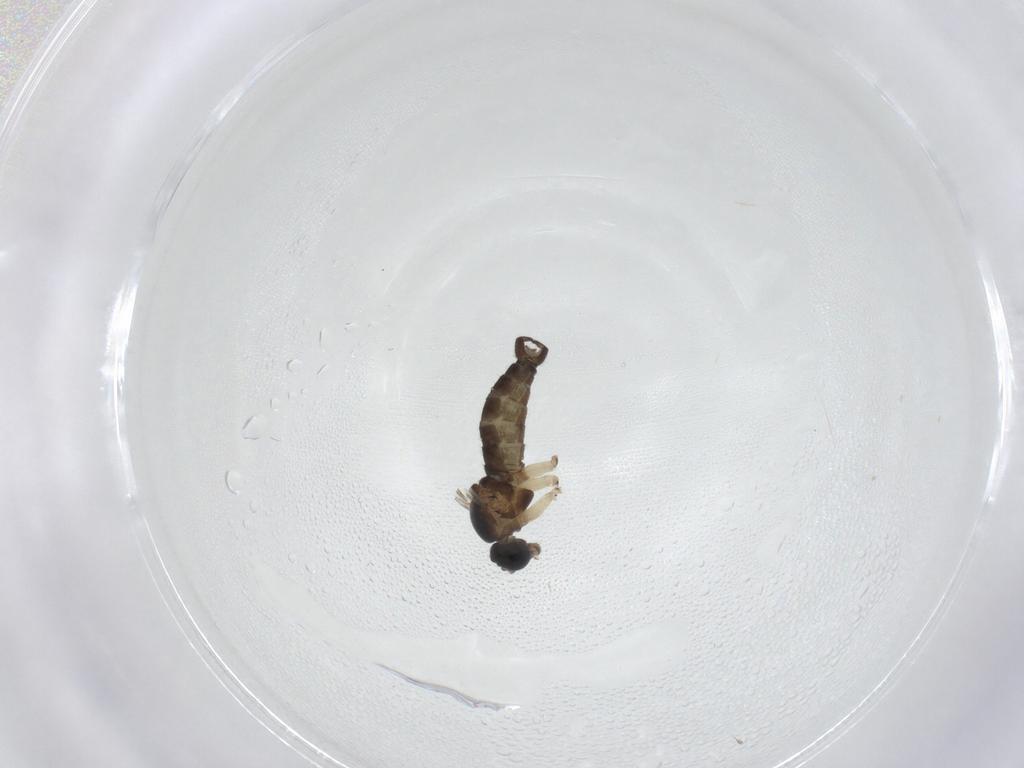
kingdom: Animalia
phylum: Arthropoda
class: Insecta
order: Diptera
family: Sciaridae
